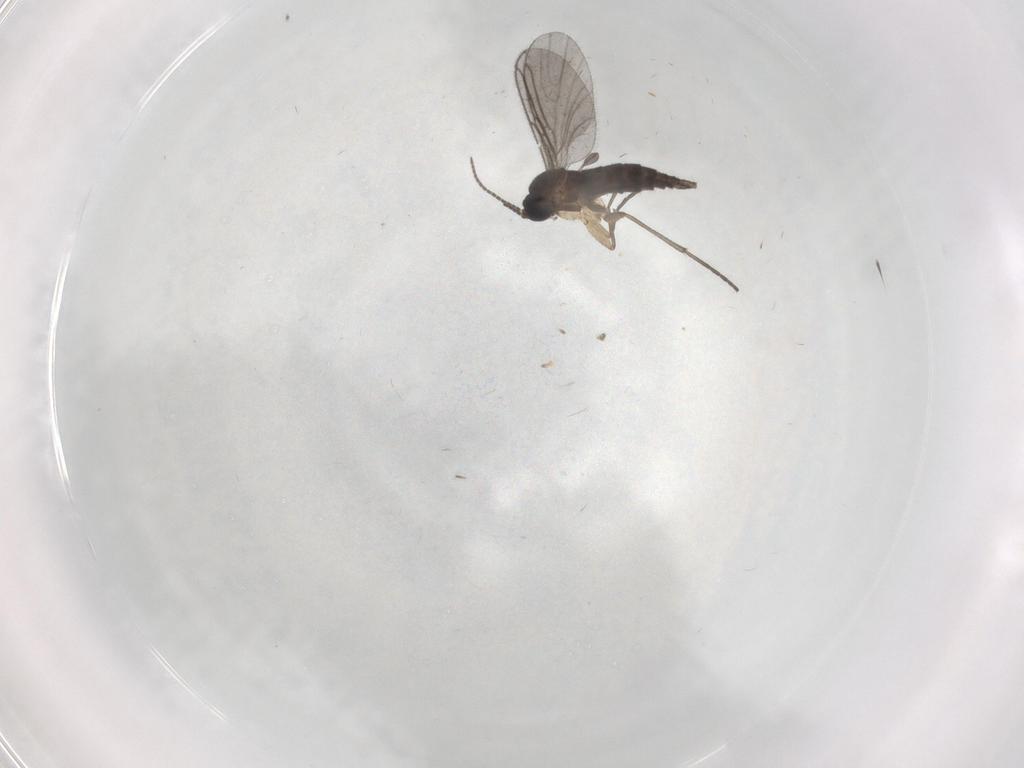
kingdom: Animalia
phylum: Arthropoda
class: Insecta
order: Diptera
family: Sciaridae
